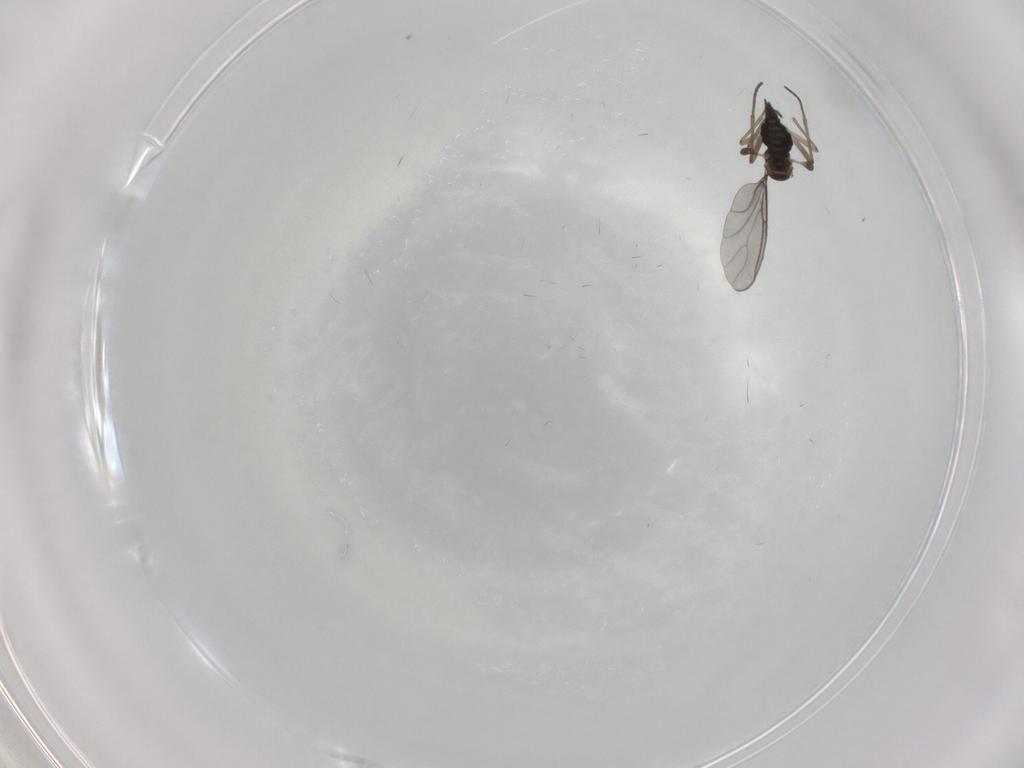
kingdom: Animalia
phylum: Arthropoda
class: Insecta
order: Diptera
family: Sciaridae
